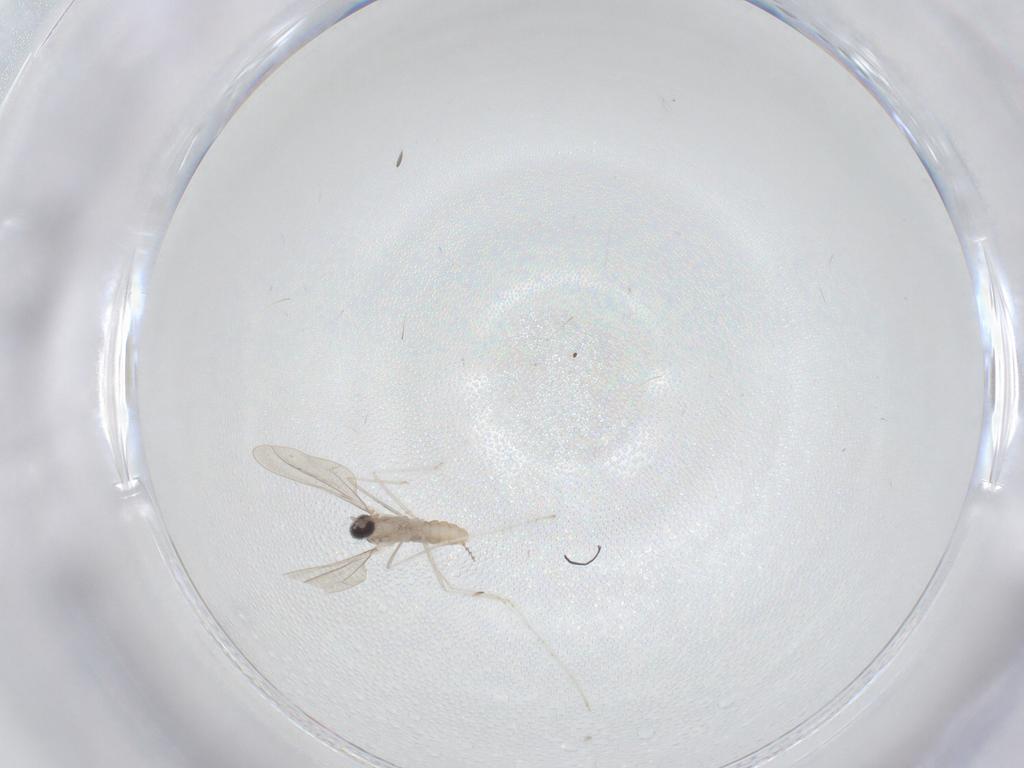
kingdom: Animalia
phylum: Arthropoda
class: Insecta
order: Diptera
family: Cecidomyiidae
